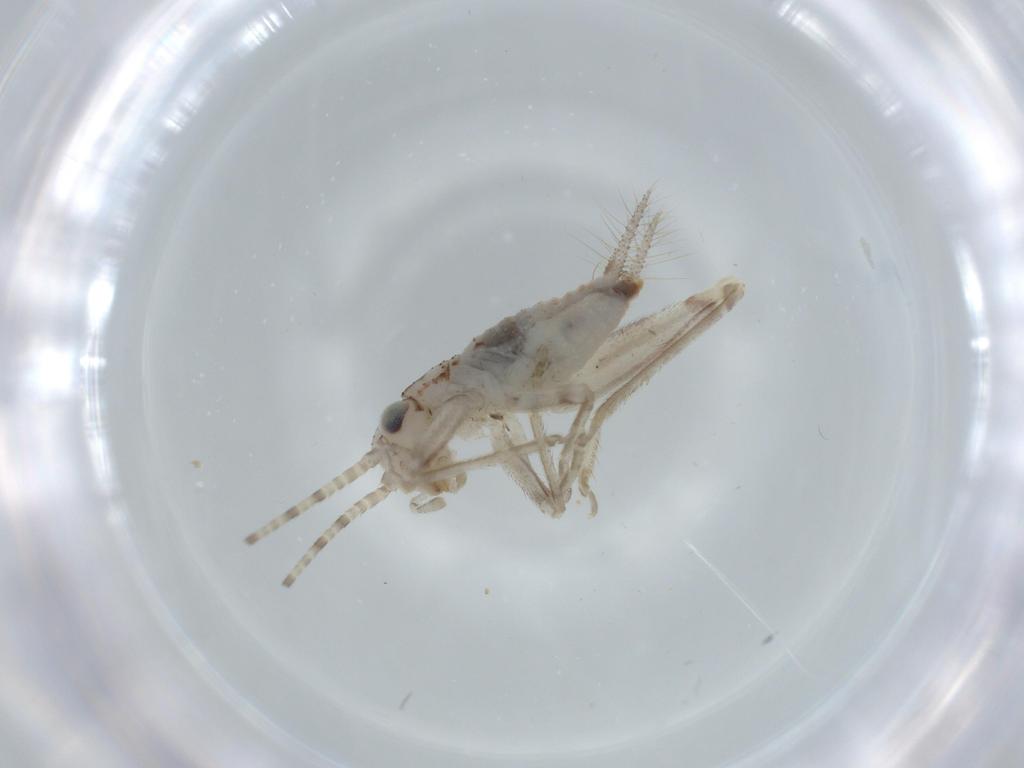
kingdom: Animalia
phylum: Arthropoda
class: Insecta
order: Orthoptera
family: Trigonidiidae
